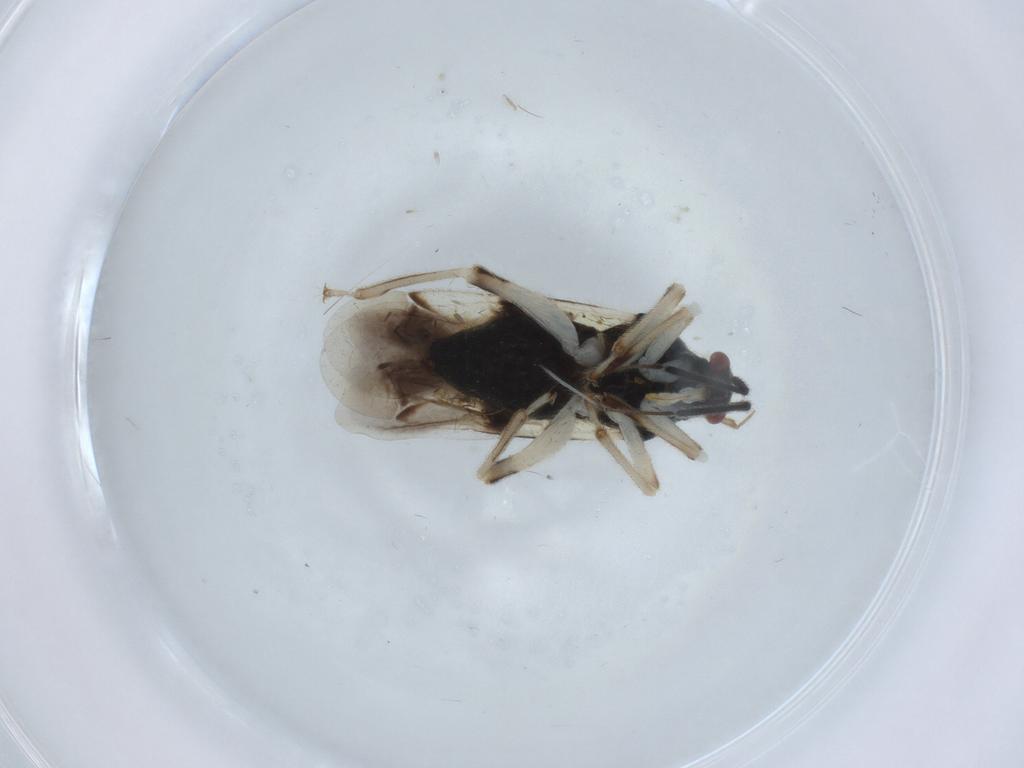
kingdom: Animalia
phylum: Arthropoda
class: Insecta
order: Hemiptera
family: Miridae
